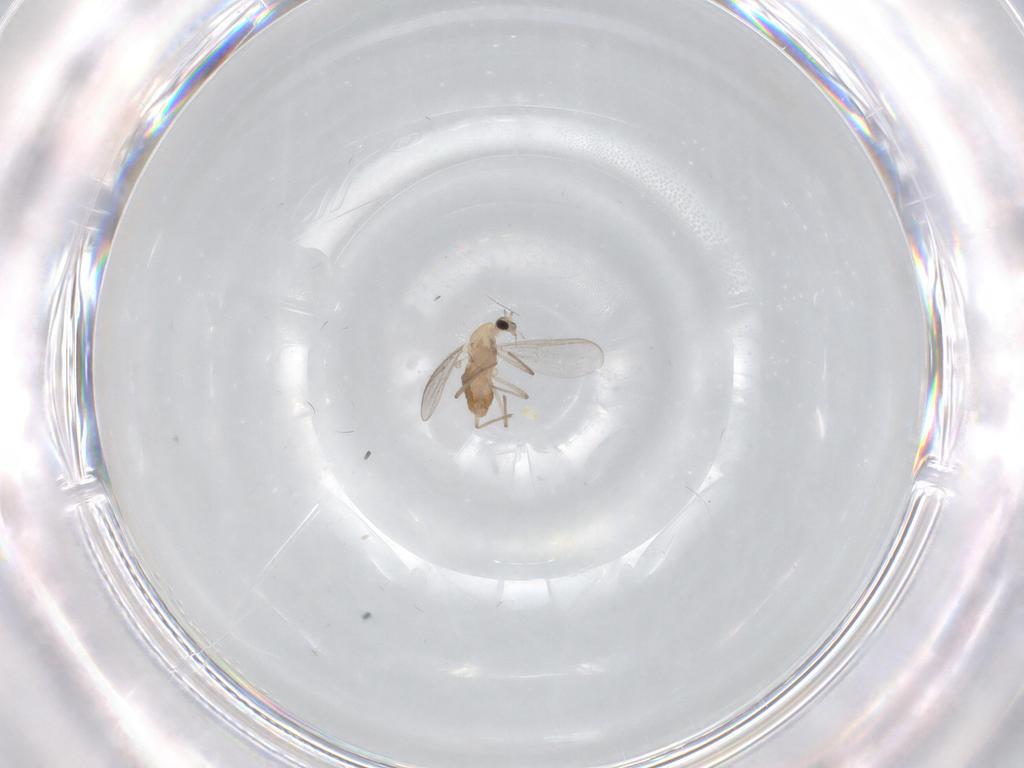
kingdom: Animalia
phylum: Arthropoda
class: Insecta
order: Diptera
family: Chironomidae
